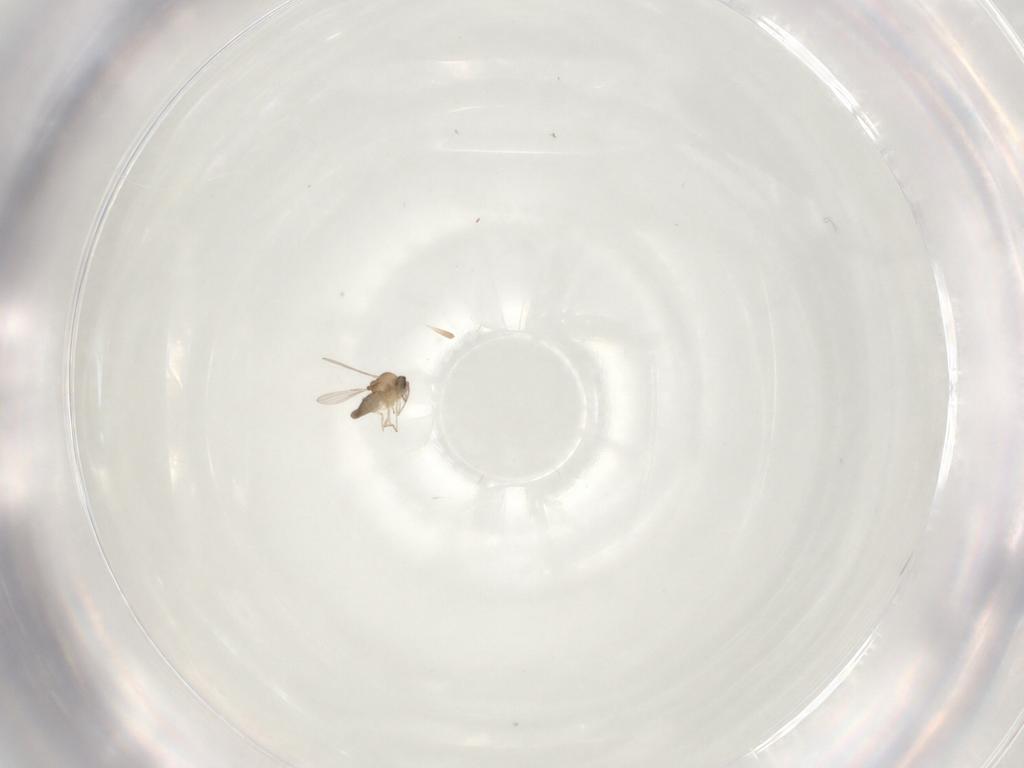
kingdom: Animalia
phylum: Arthropoda
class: Insecta
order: Diptera
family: Ceratopogonidae
